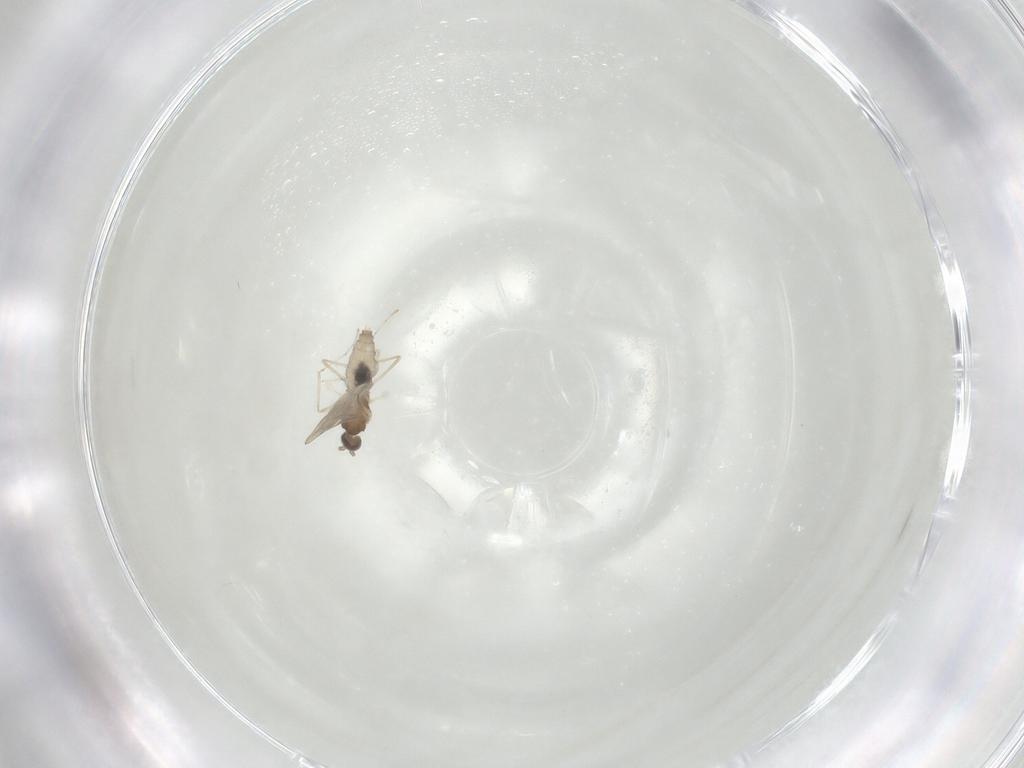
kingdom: Animalia
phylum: Arthropoda
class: Insecta
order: Diptera
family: Cecidomyiidae
